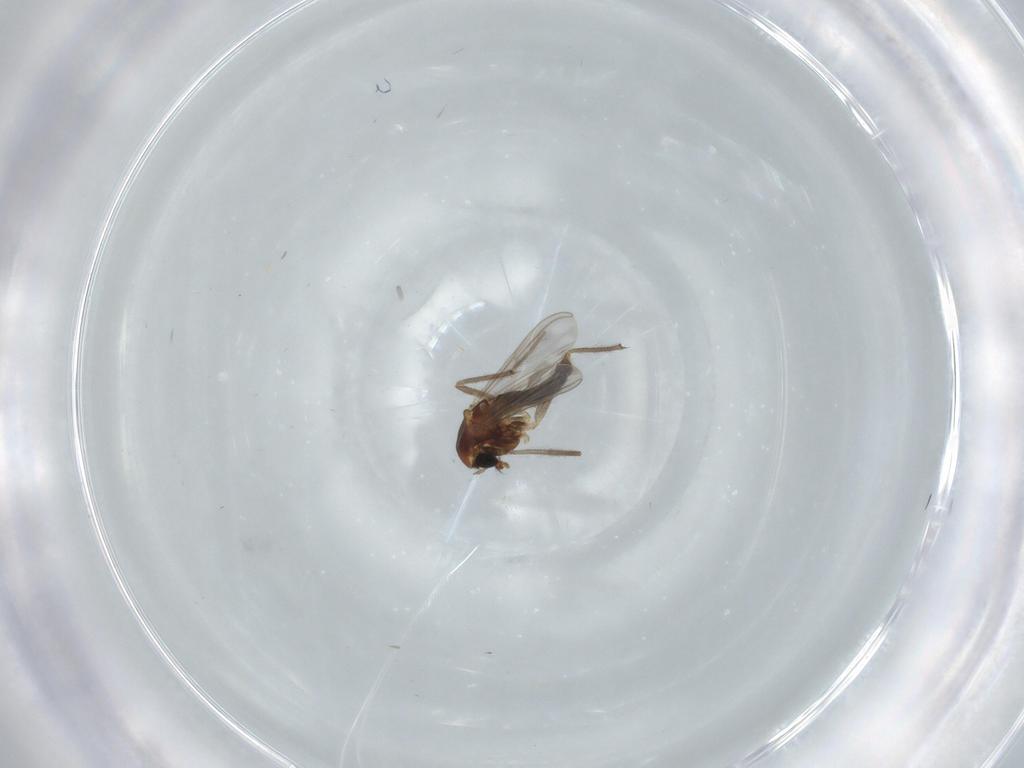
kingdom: Animalia
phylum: Arthropoda
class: Insecta
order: Diptera
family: Chironomidae
